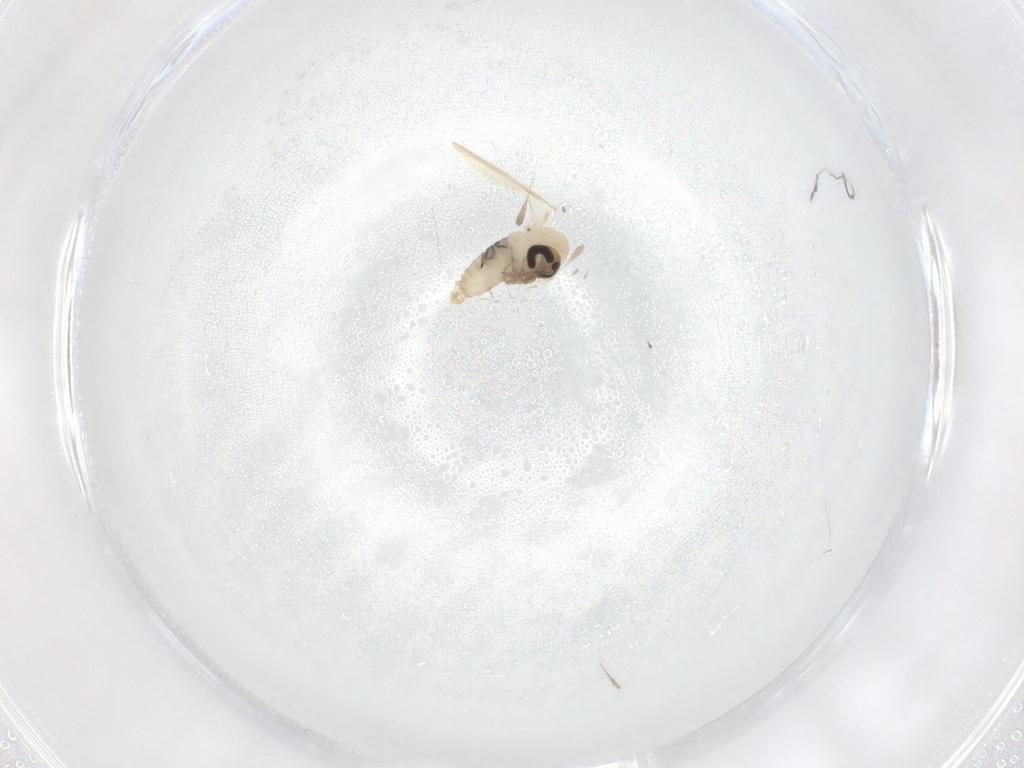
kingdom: Animalia
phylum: Arthropoda
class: Insecta
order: Diptera
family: Psychodidae
